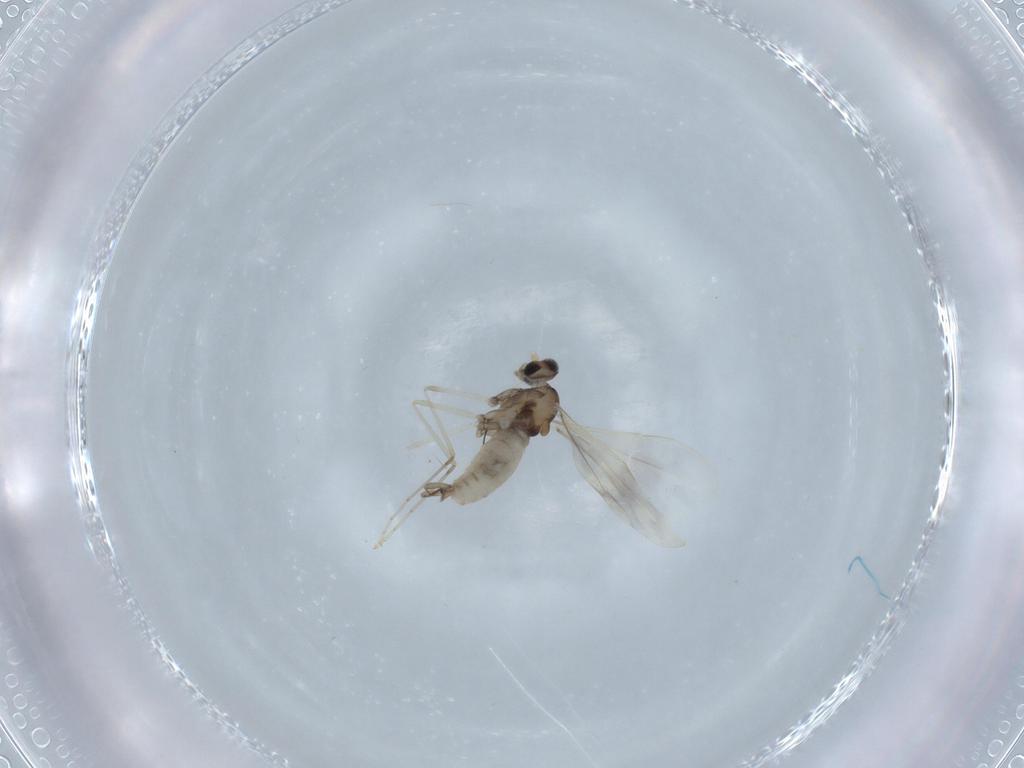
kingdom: Animalia
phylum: Arthropoda
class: Insecta
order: Diptera
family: Cecidomyiidae
